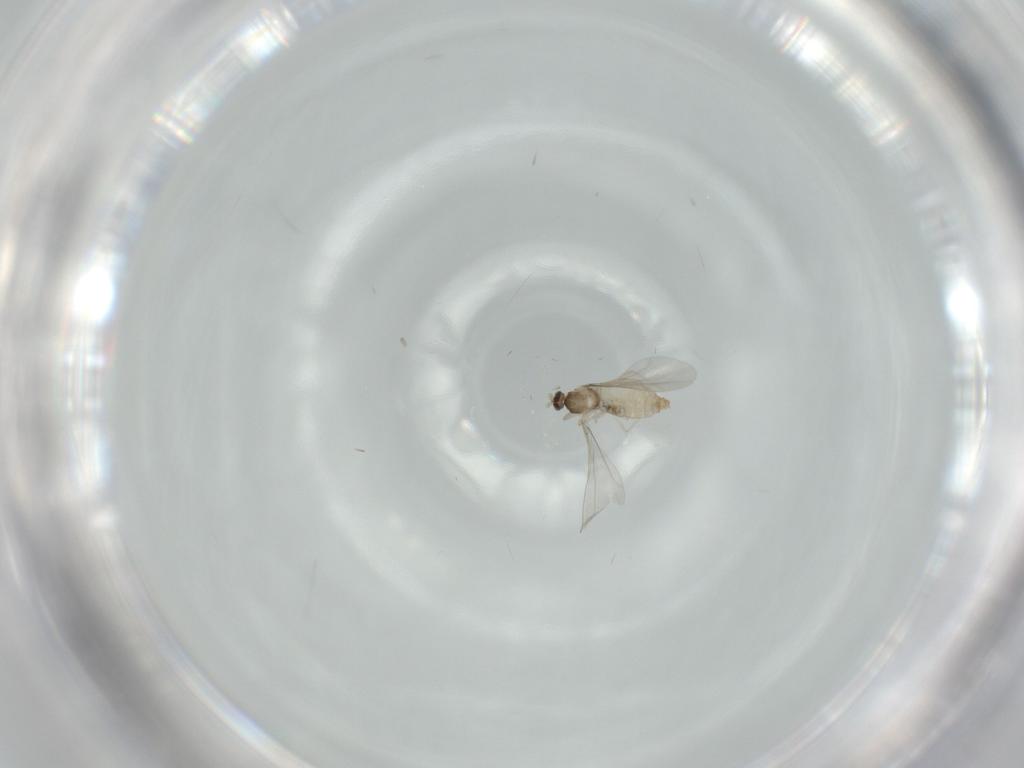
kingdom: Animalia
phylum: Arthropoda
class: Insecta
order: Diptera
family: Cecidomyiidae
